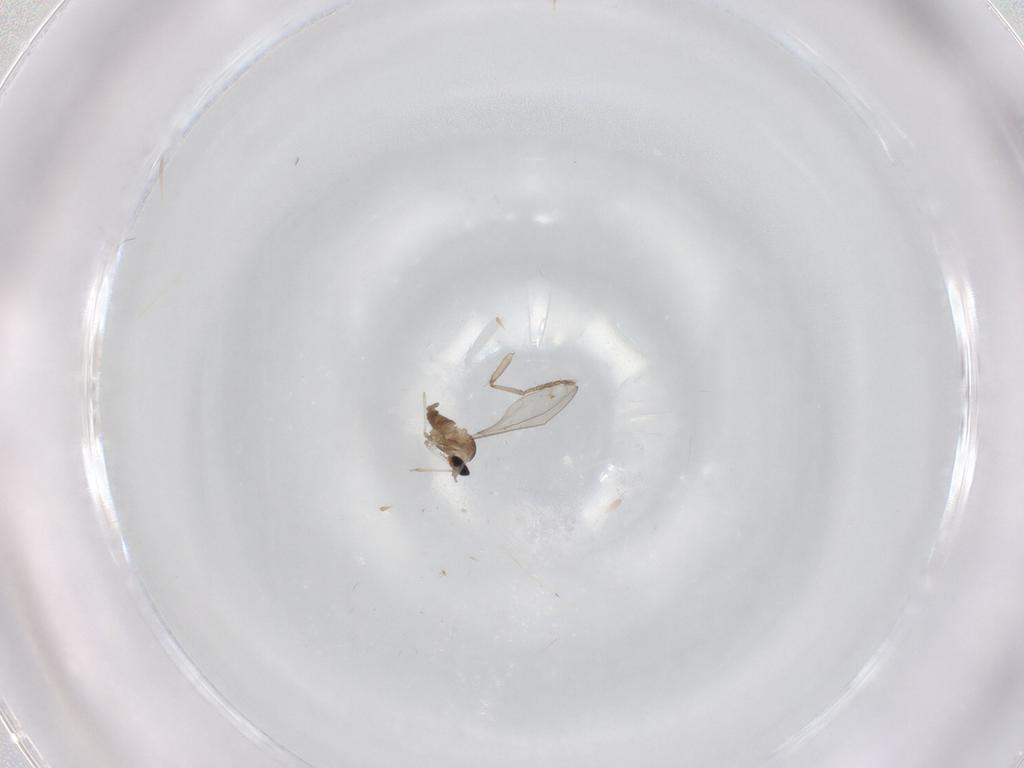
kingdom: Animalia
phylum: Arthropoda
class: Insecta
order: Diptera
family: Cecidomyiidae
